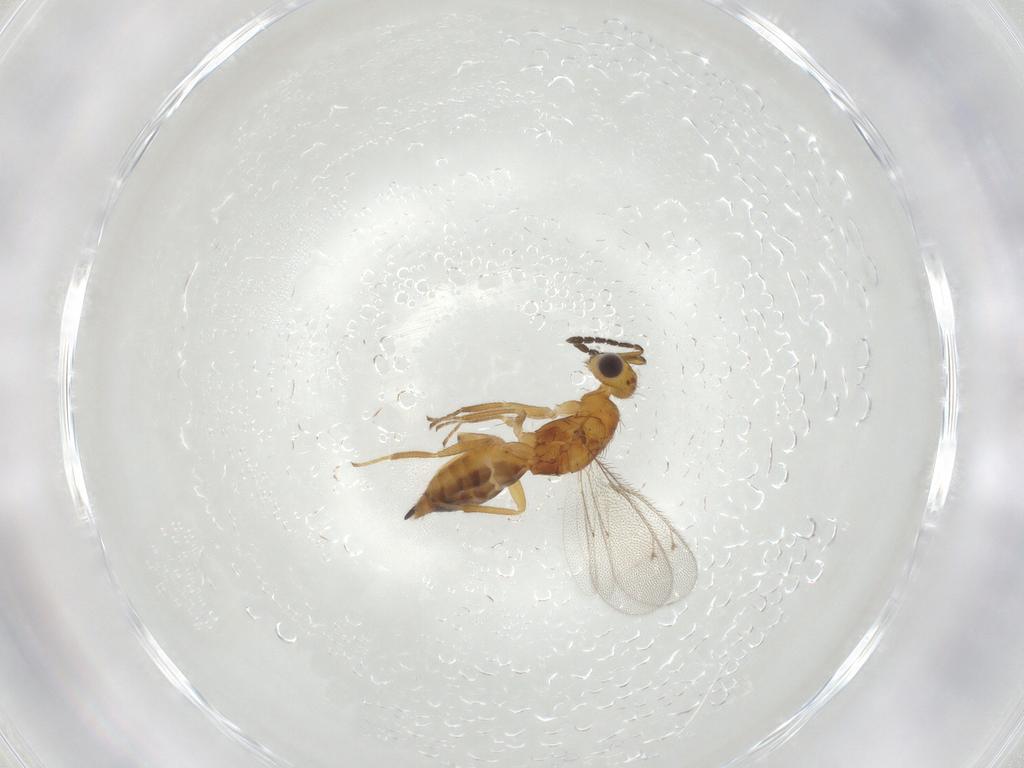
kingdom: Animalia
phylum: Arthropoda
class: Insecta
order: Hymenoptera
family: Eulophidae
